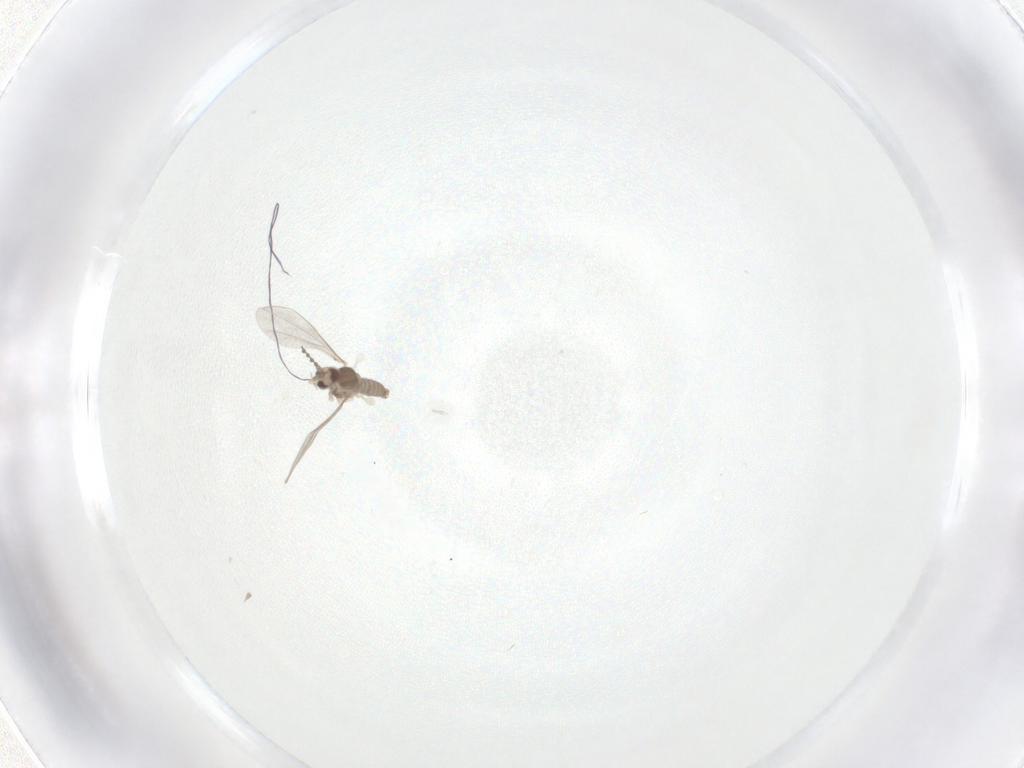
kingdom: Animalia
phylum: Arthropoda
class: Insecta
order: Diptera
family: Cecidomyiidae
